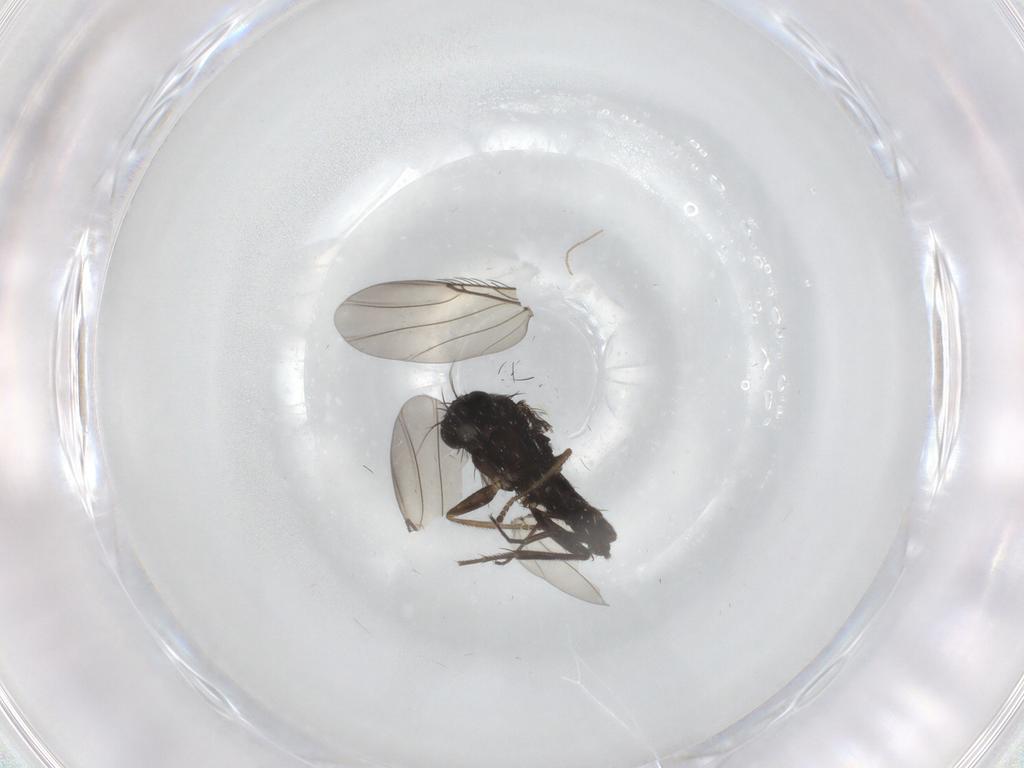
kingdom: Animalia
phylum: Arthropoda
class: Insecta
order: Diptera
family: Phoridae
